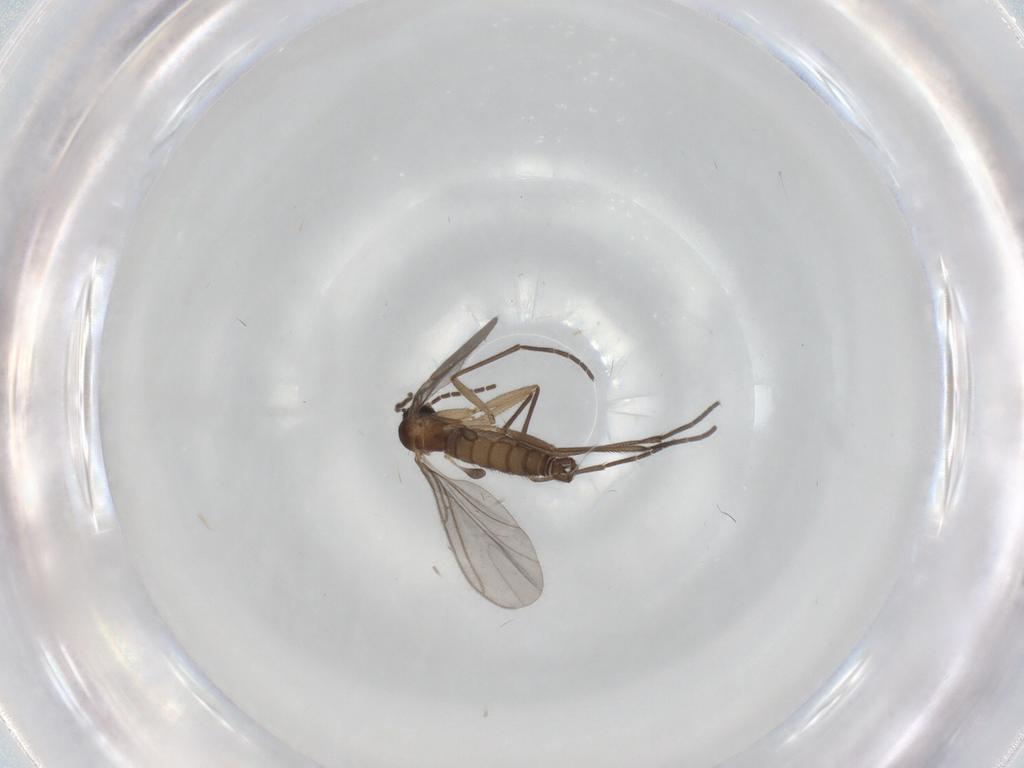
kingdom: Animalia
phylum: Arthropoda
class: Insecta
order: Diptera
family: Sciaridae
